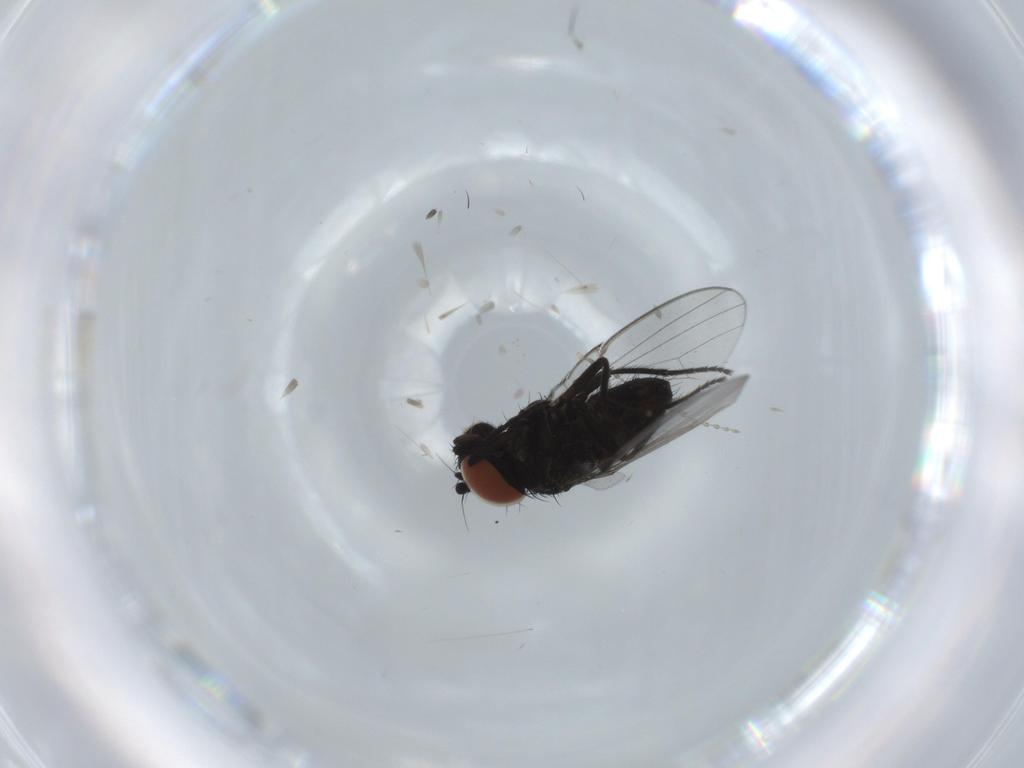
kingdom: Animalia
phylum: Arthropoda
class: Insecta
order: Diptera
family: Milichiidae
